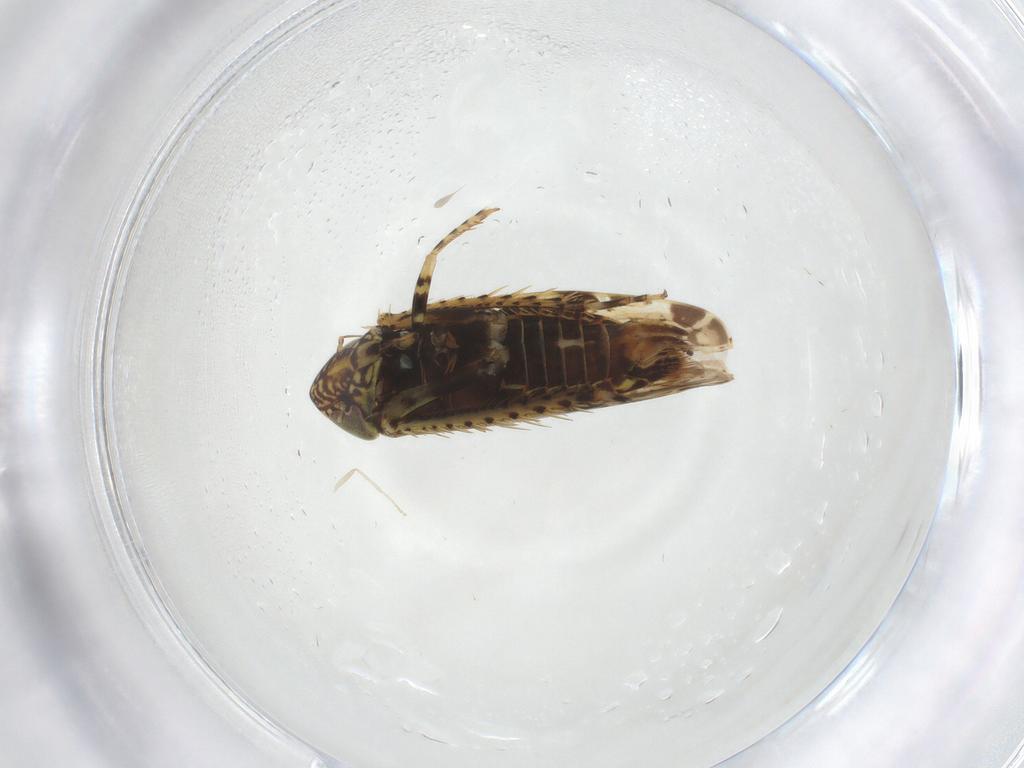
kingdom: Animalia
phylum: Arthropoda
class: Insecta
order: Hemiptera
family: Cicadellidae
